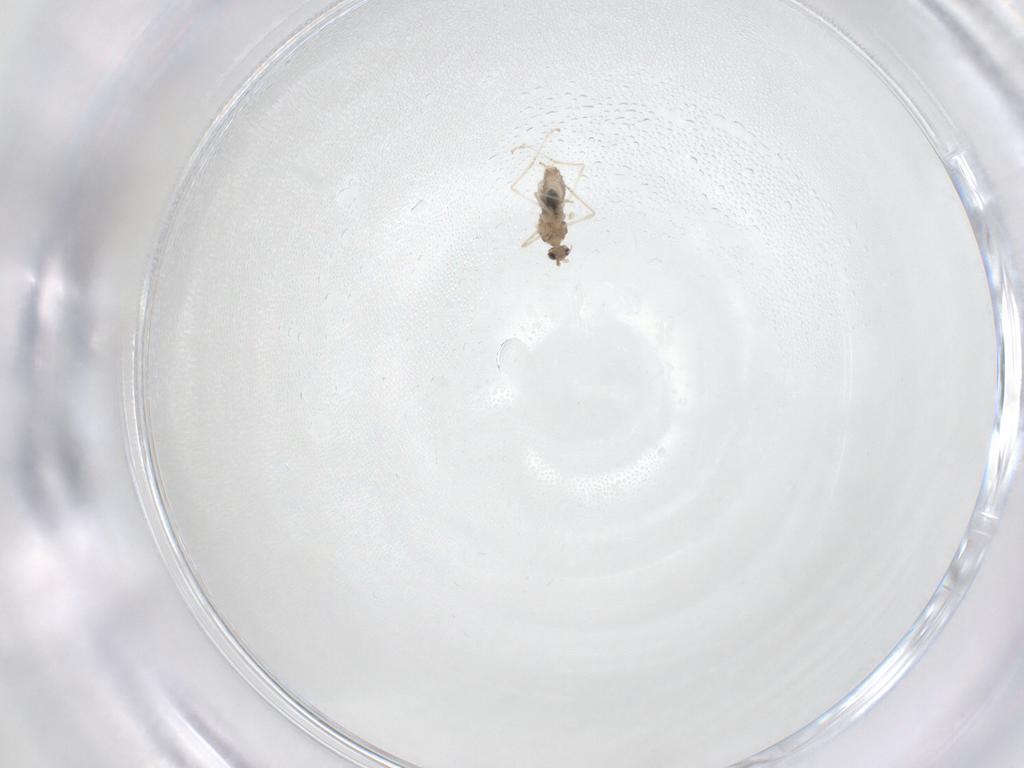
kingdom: Animalia
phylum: Arthropoda
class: Insecta
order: Diptera
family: Cecidomyiidae
